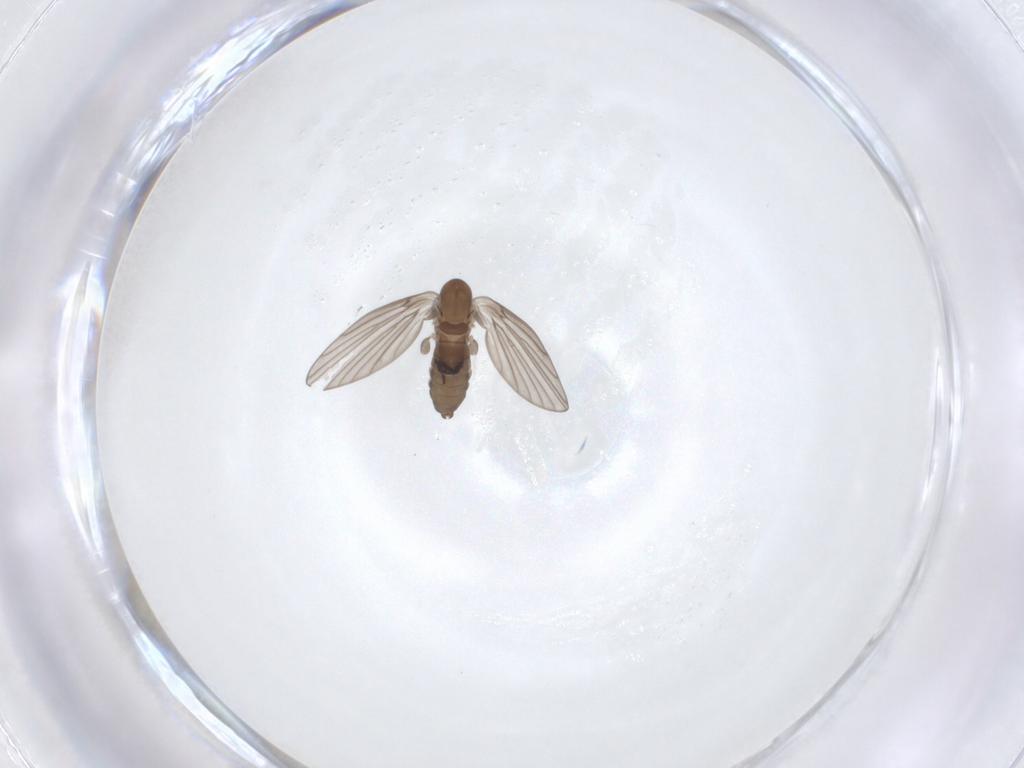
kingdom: Animalia
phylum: Arthropoda
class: Insecta
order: Diptera
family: Psychodidae
